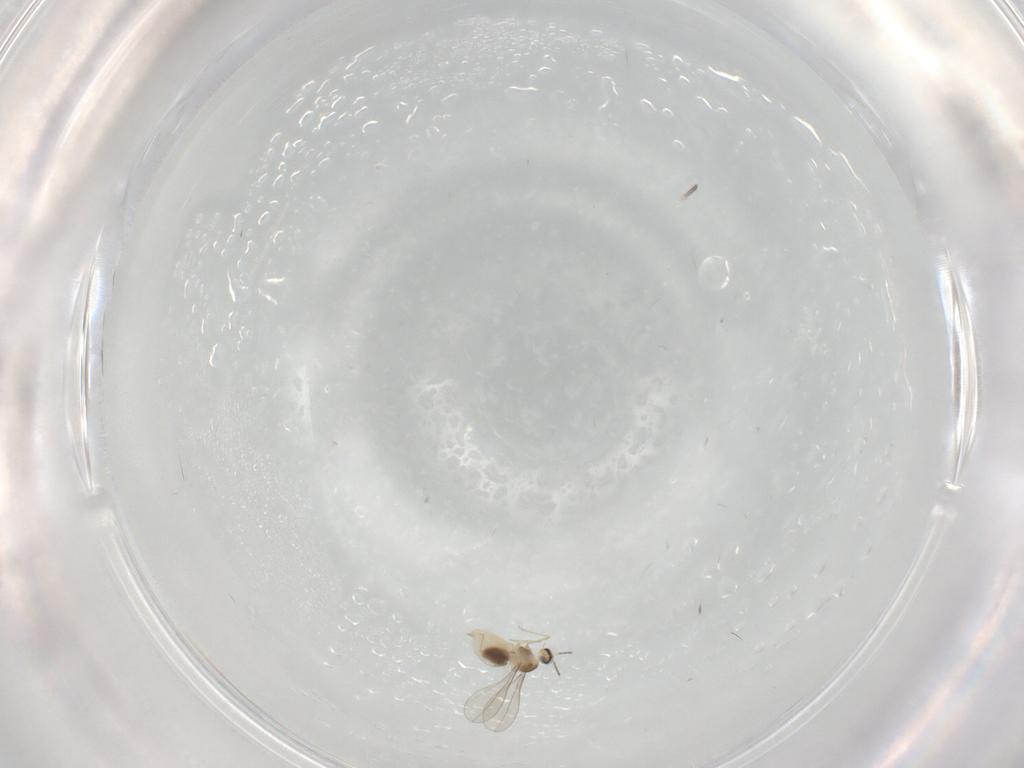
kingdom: Animalia
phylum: Arthropoda
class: Insecta
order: Diptera
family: Cecidomyiidae
